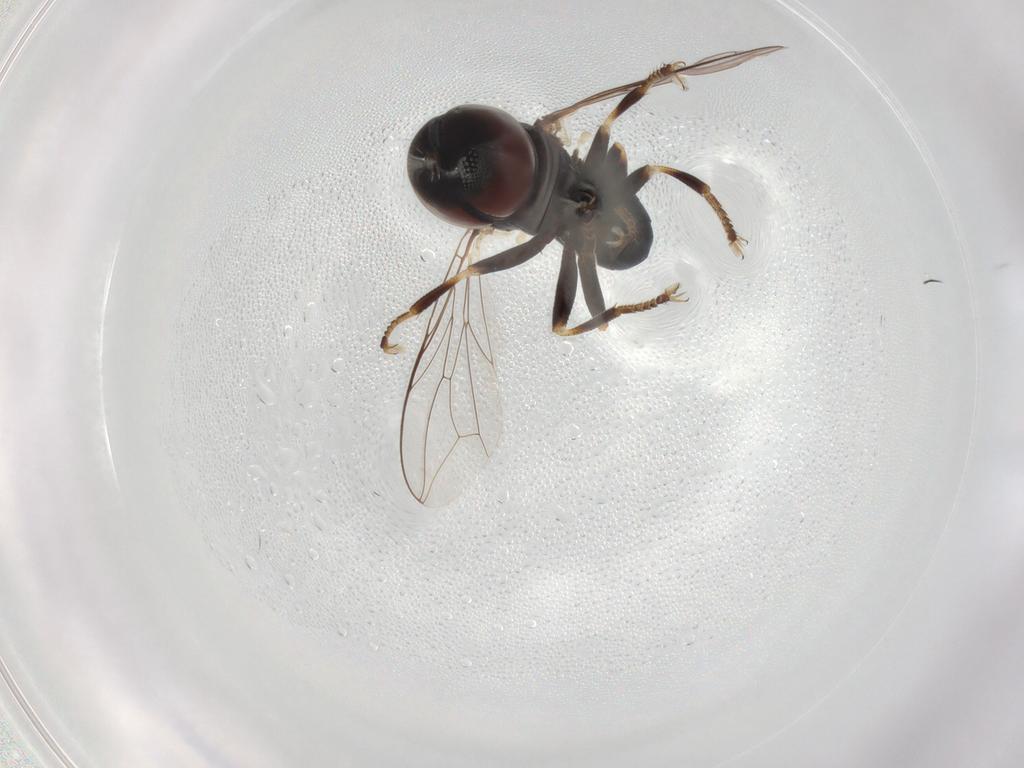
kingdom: Animalia
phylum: Arthropoda
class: Insecta
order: Diptera
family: Pipunculidae
